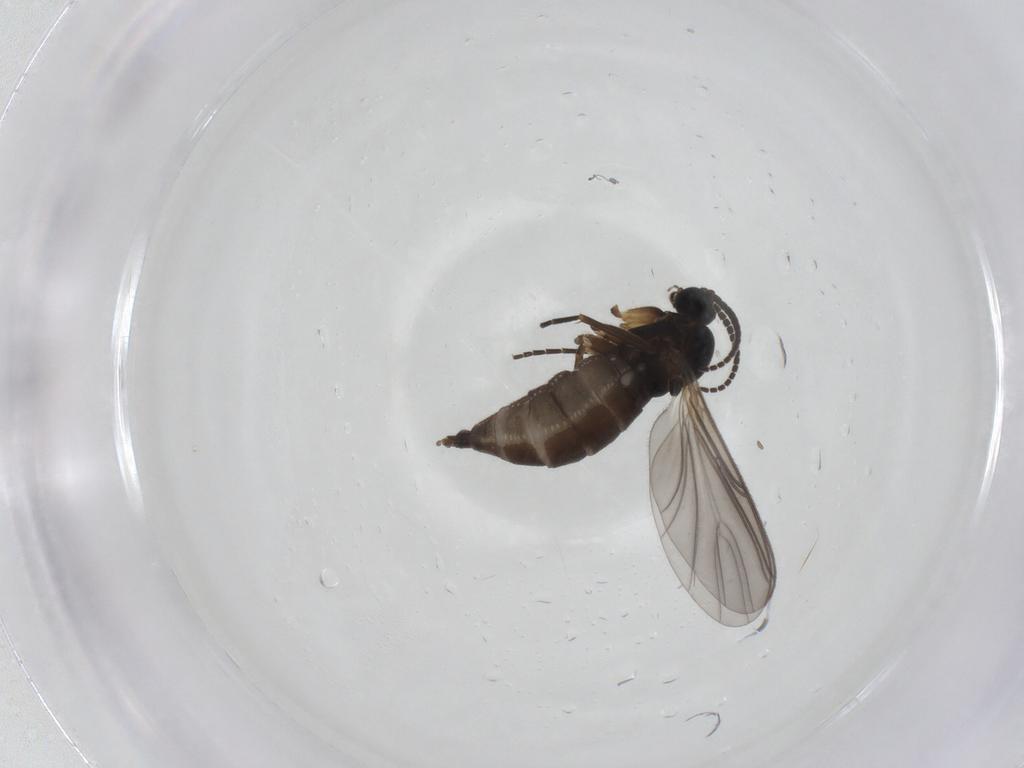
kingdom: Animalia
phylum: Arthropoda
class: Insecta
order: Diptera
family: Sciaridae
